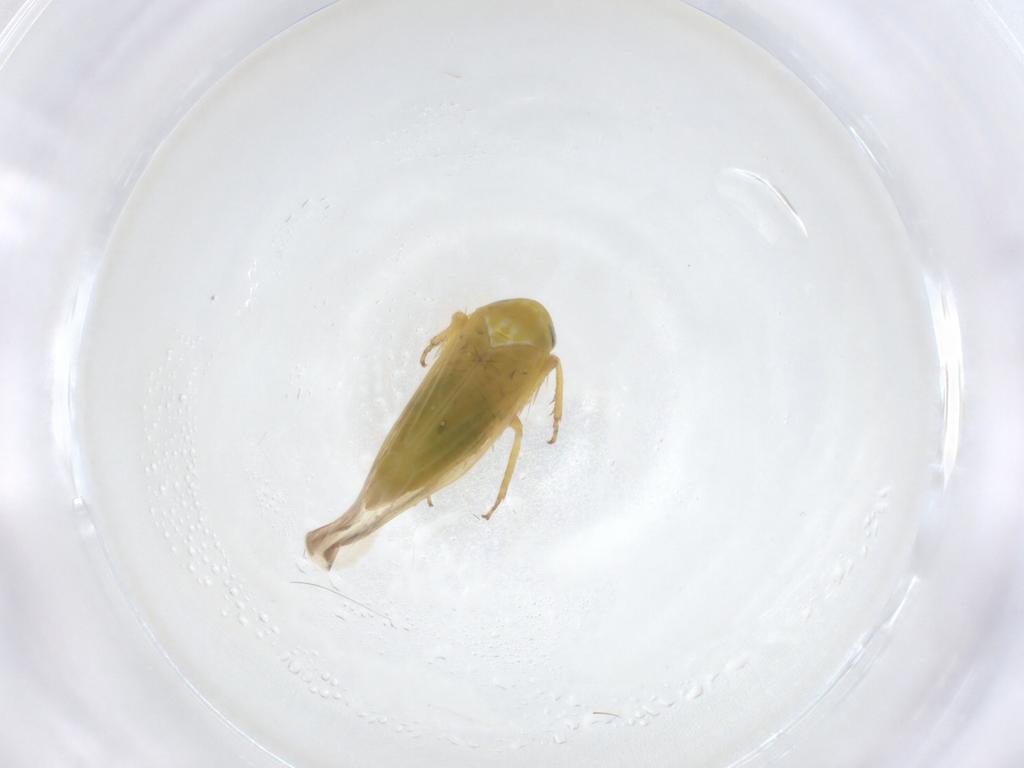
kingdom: Animalia
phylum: Arthropoda
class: Insecta
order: Hemiptera
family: Cicadellidae
